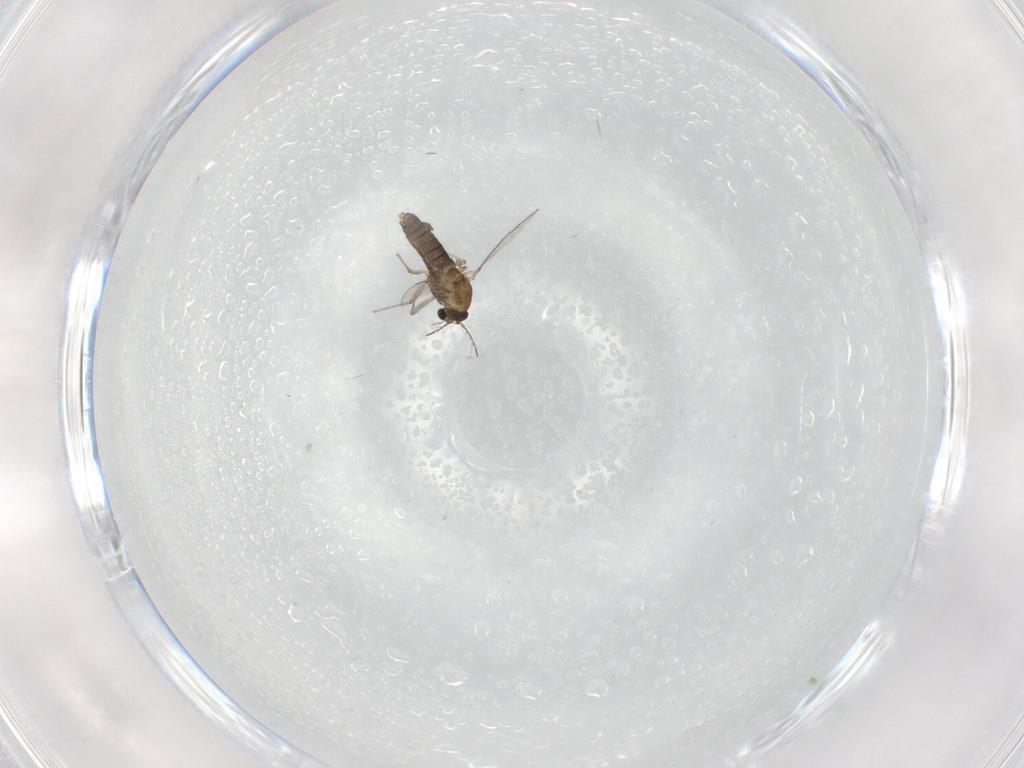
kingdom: Animalia
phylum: Arthropoda
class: Insecta
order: Diptera
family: Chironomidae
